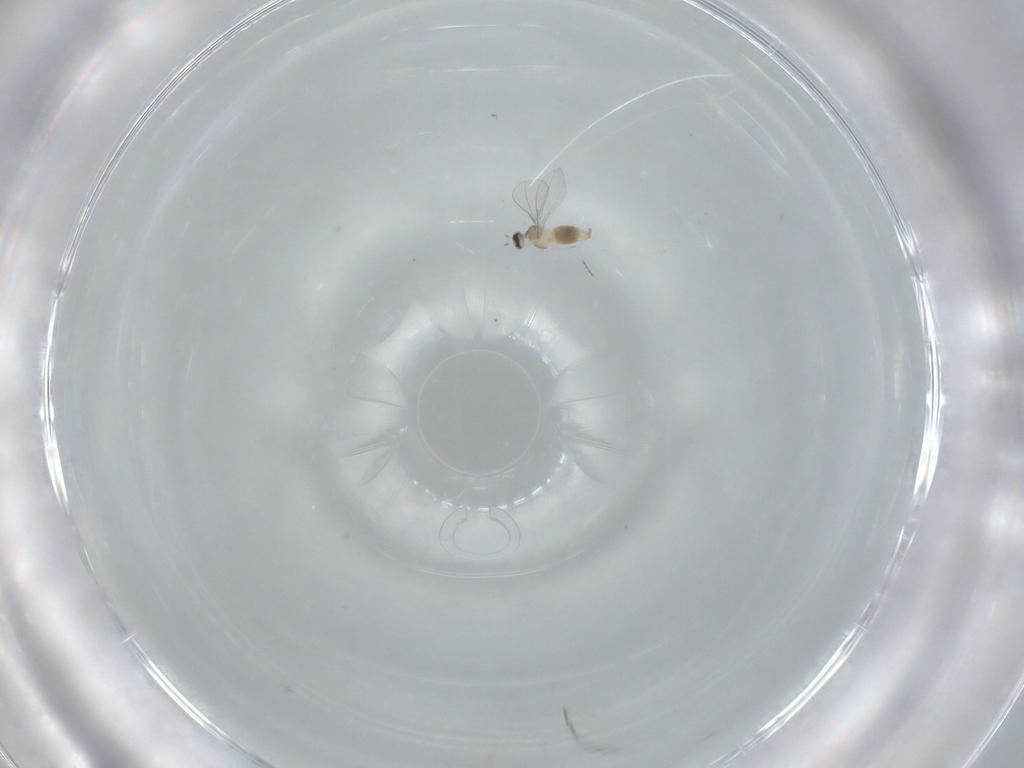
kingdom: Animalia
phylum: Arthropoda
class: Insecta
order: Diptera
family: Cecidomyiidae
